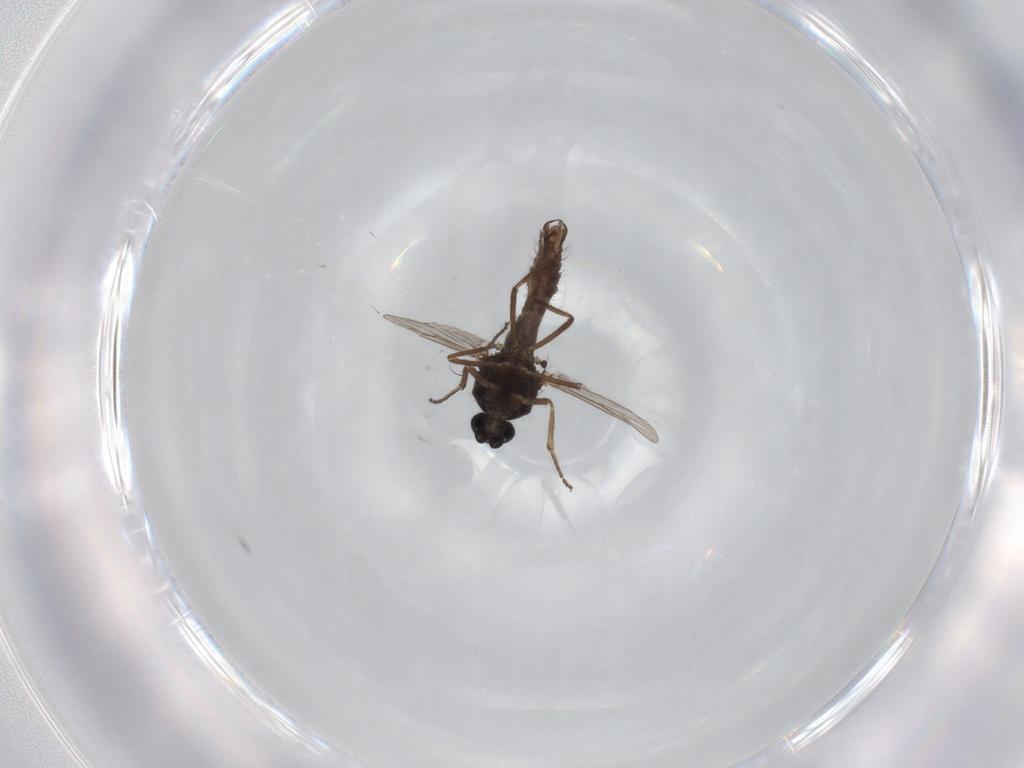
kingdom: Animalia
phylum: Arthropoda
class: Insecta
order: Diptera
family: Ceratopogonidae
